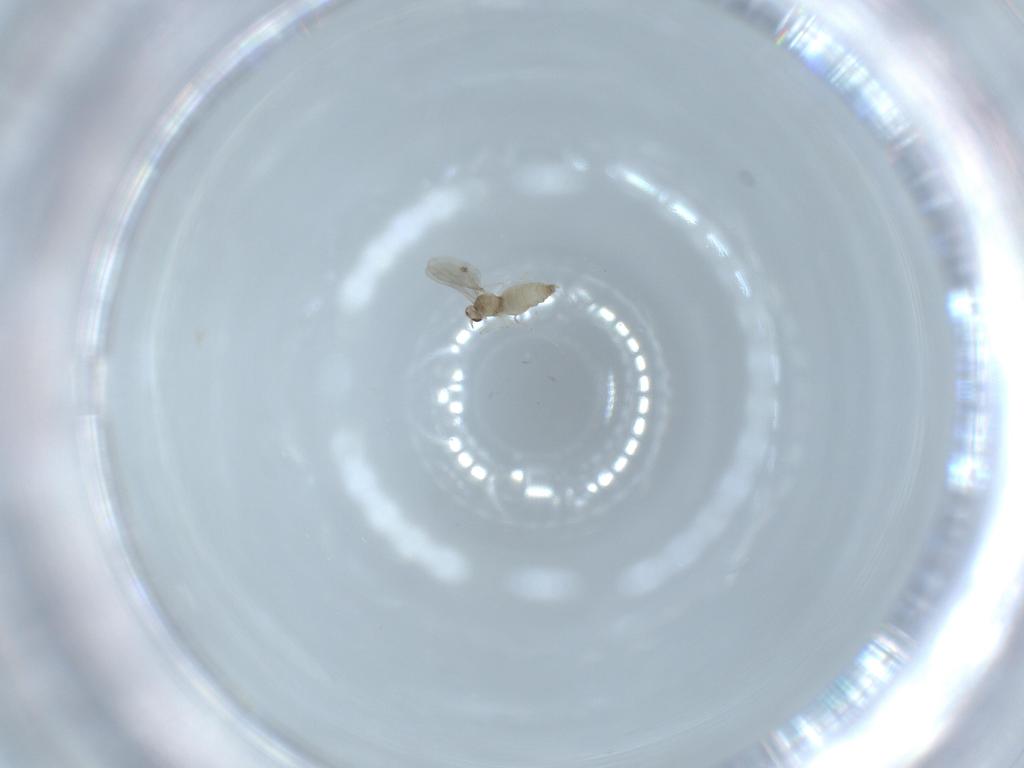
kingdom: Animalia
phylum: Arthropoda
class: Insecta
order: Diptera
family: Cecidomyiidae
